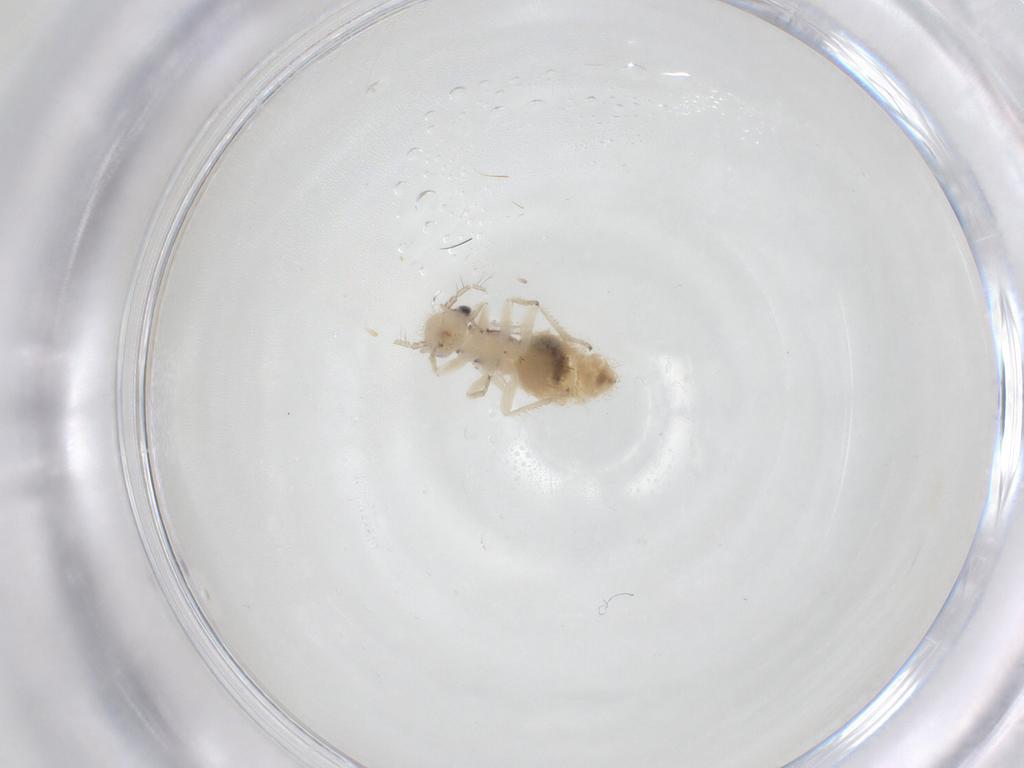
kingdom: Animalia
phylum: Arthropoda
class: Insecta
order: Psocodea
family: Pseudocaeciliidae
